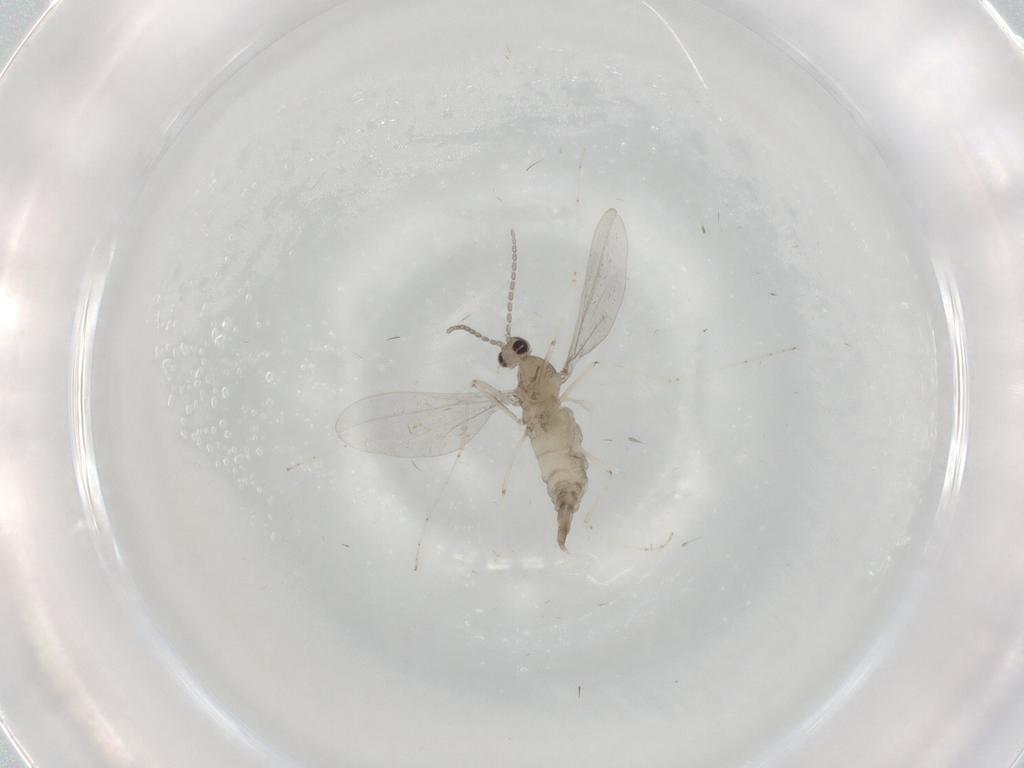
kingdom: Animalia
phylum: Arthropoda
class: Insecta
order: Diptera
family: Cecidomyiidae
